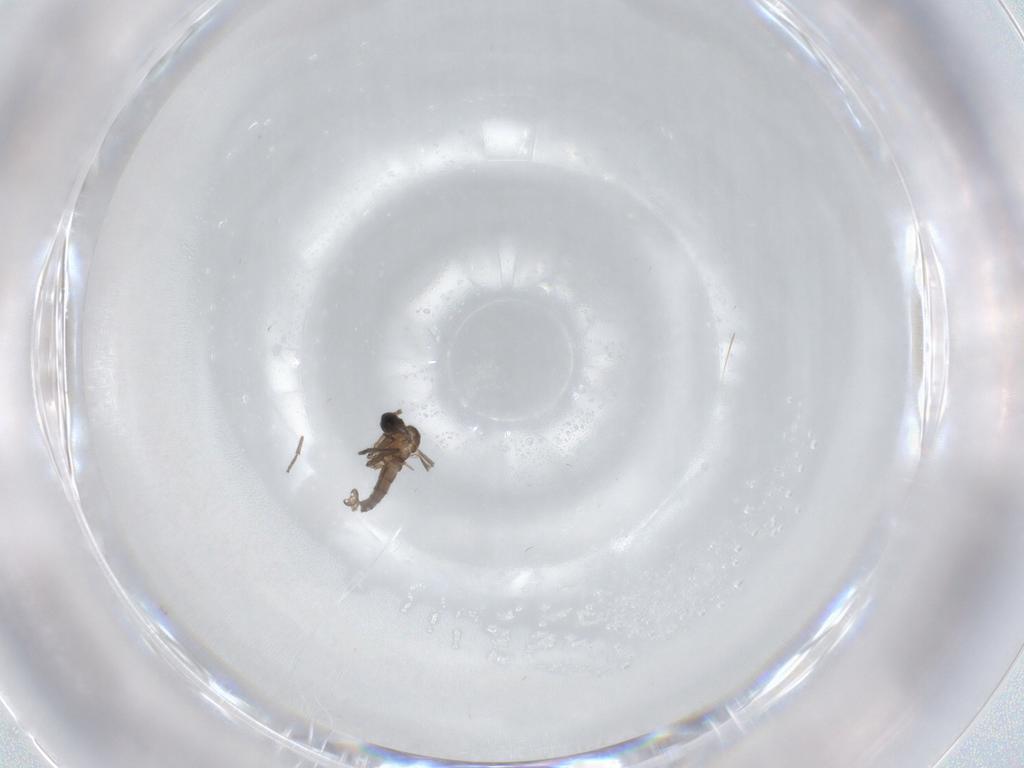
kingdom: Animalia
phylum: Arthropoda
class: Insecta
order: Diptera
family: Sciaridae
